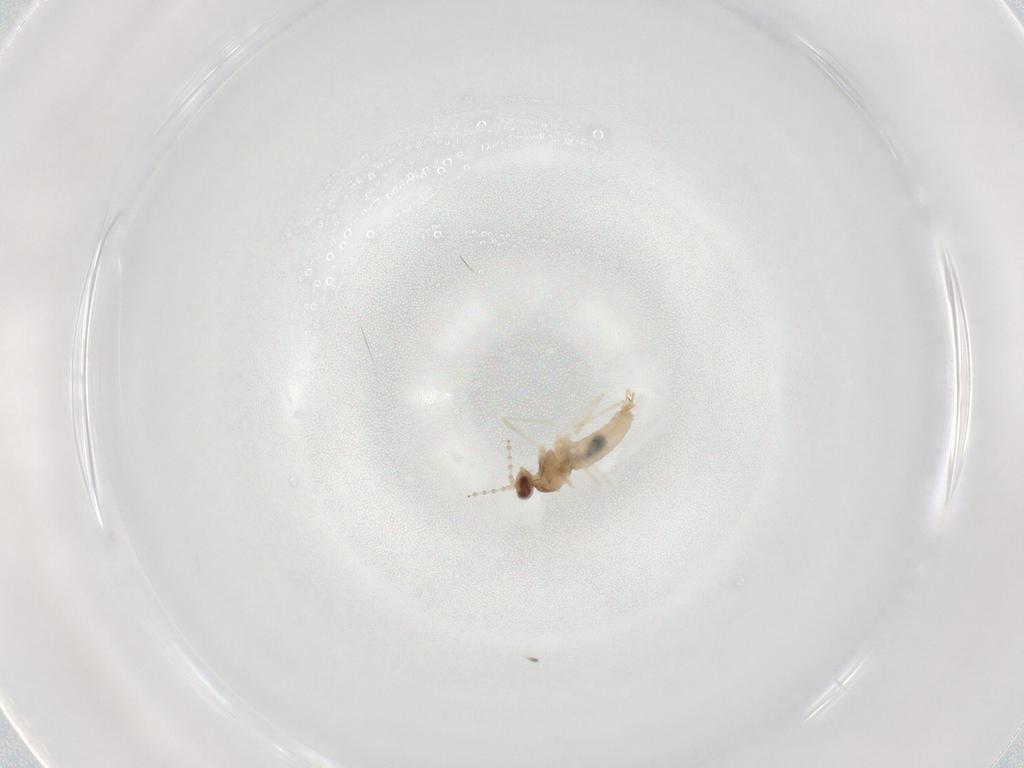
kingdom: Animalia
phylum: Arthropoda
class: Insecta
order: Diptera
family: Cecidomyiidae
